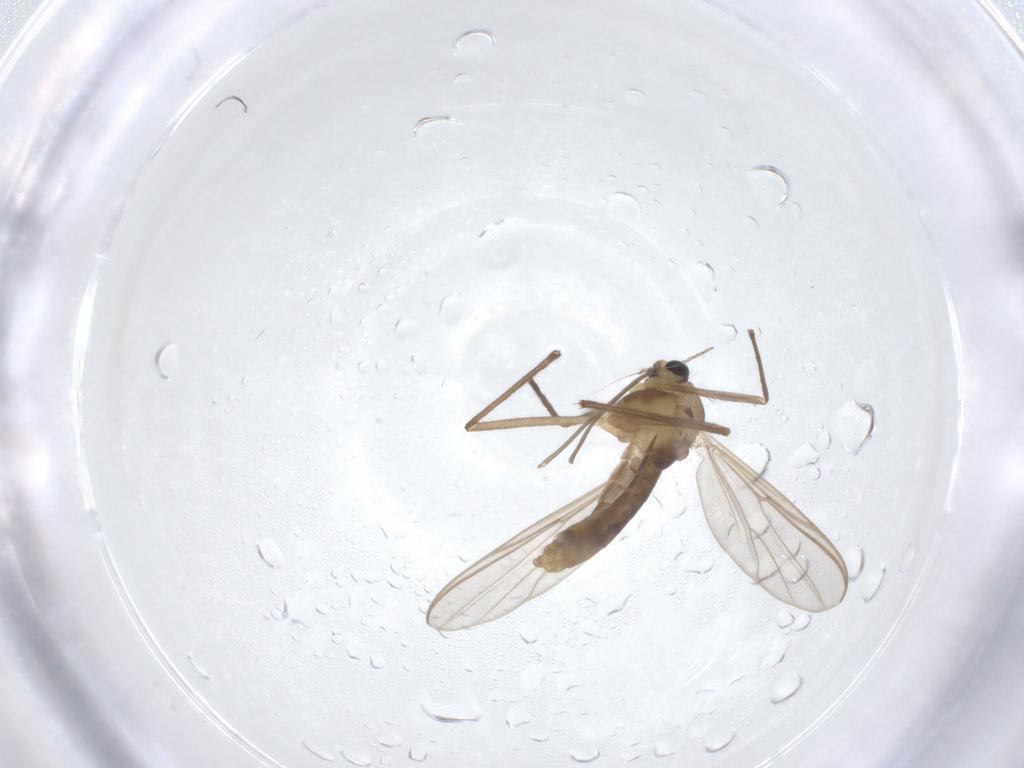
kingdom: Animalia
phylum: Arthropoda
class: Insecta
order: Diptera
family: Chironomidae
